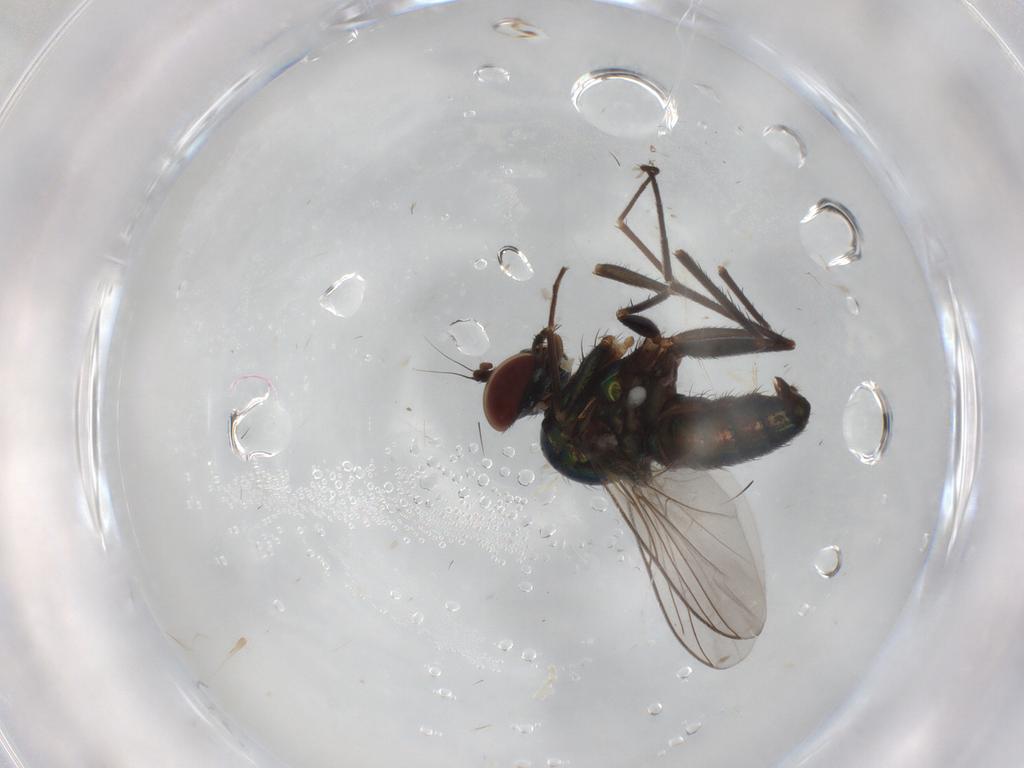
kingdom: Animalia
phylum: Arthropoda
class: Insecta
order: Diptera
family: Dolichopodidae
